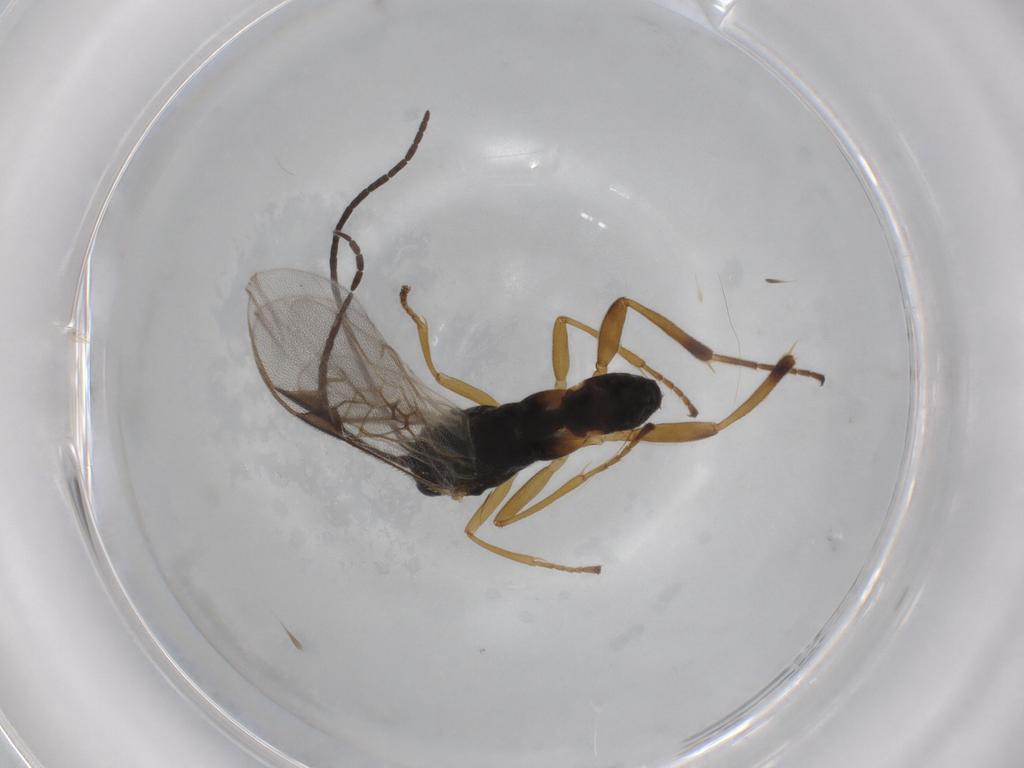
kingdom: Animalia
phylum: Arthropoda
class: Insecta
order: Hymenoptera
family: Braconidae
